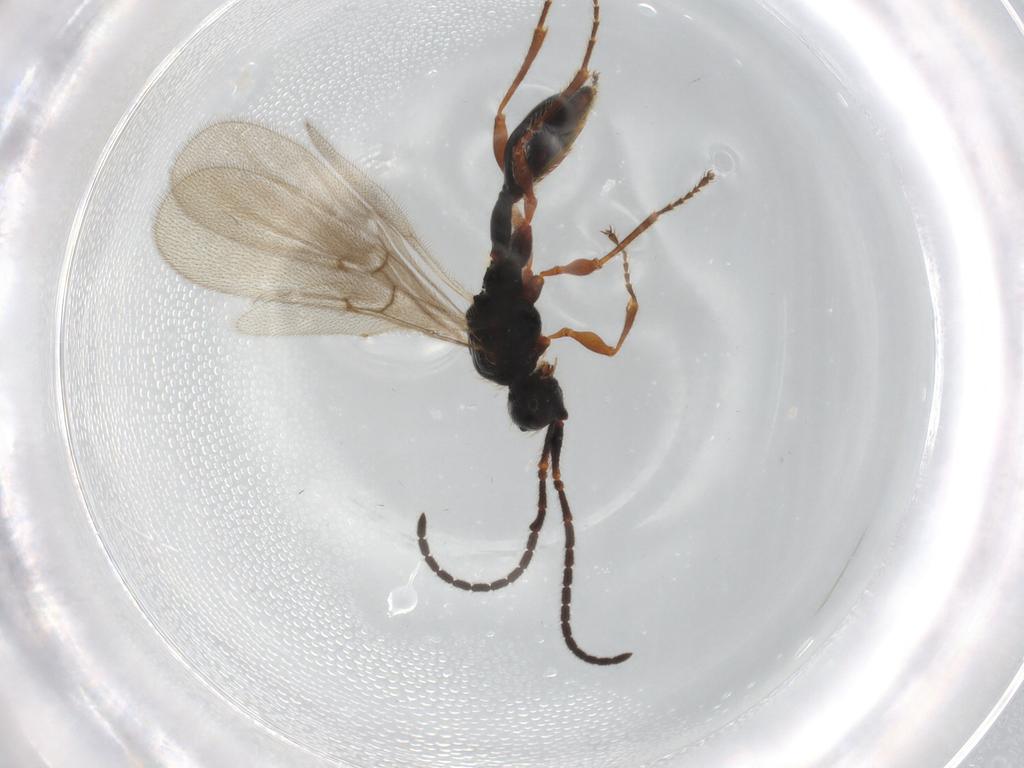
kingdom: Animalia
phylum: Arthropoda
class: Insecta
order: Hymenoptera
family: Diapriidae
